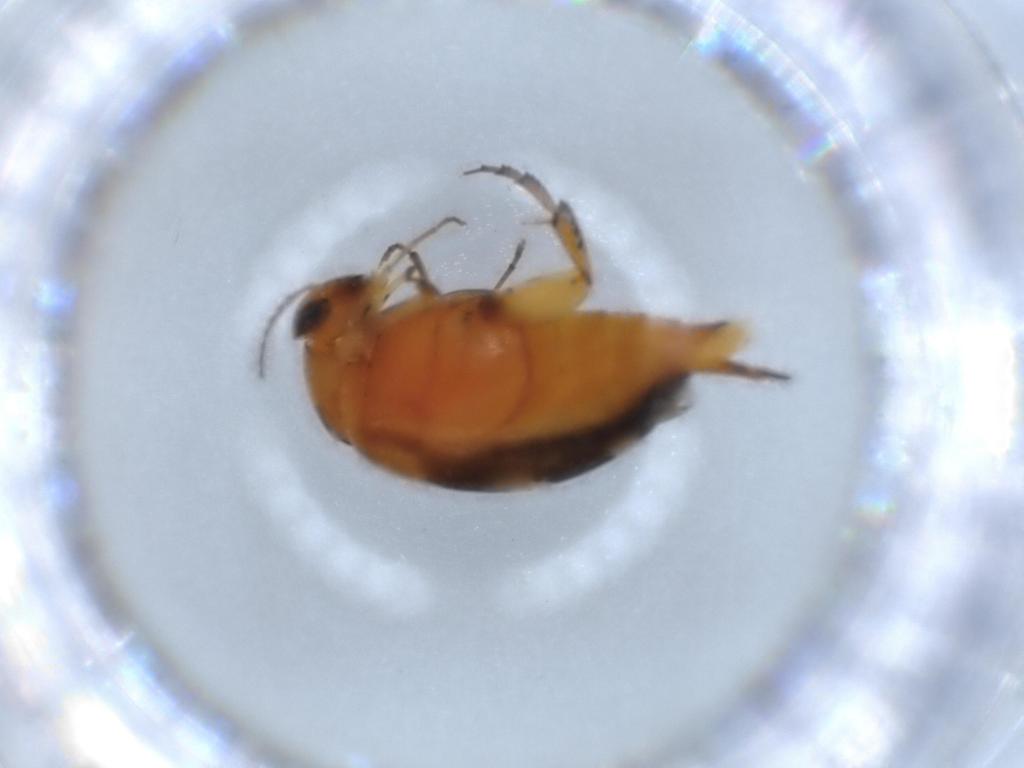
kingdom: Animalia
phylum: Arthropoda
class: Insecta
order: Coleoptera
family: Mordellidae
